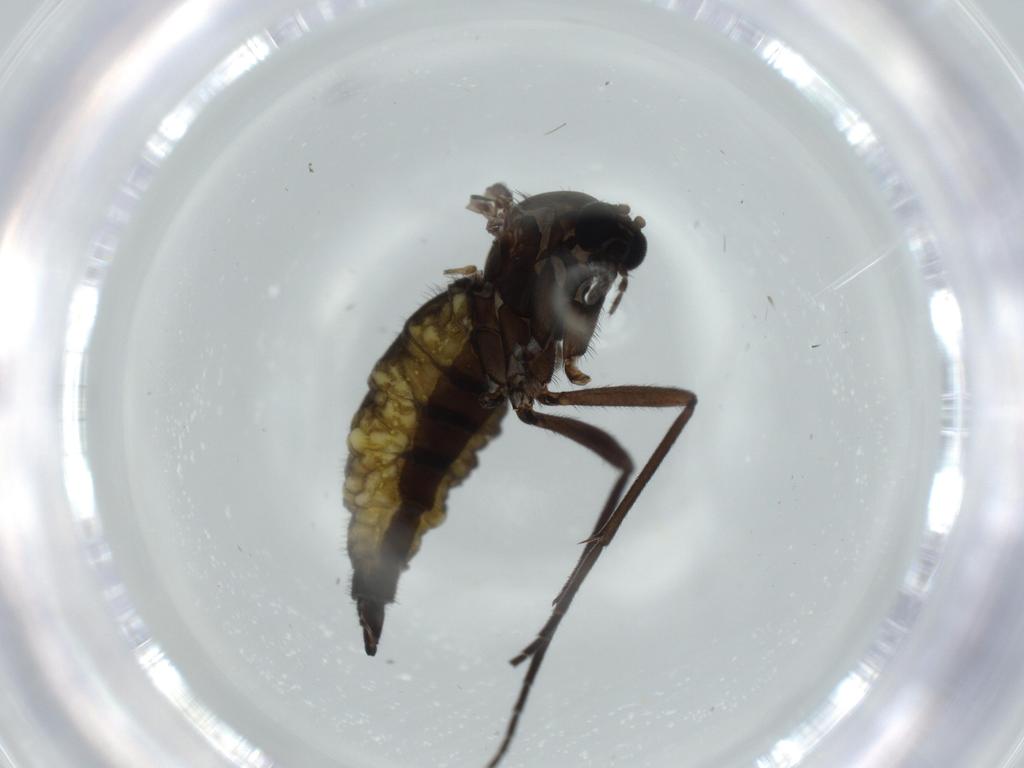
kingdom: Animalia
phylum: Arthropoda
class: Insecta
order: Diptera
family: Sciaridae
